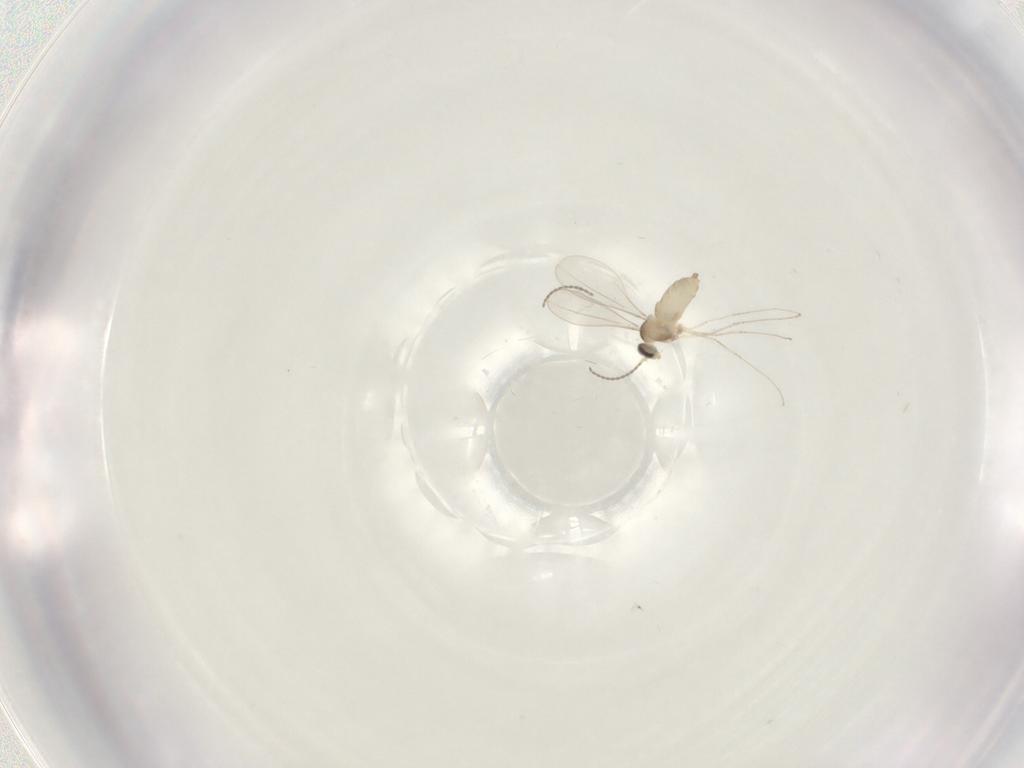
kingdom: Animalia
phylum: Arthropoda
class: Insecta
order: Diptera
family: Cecidomyiidae
